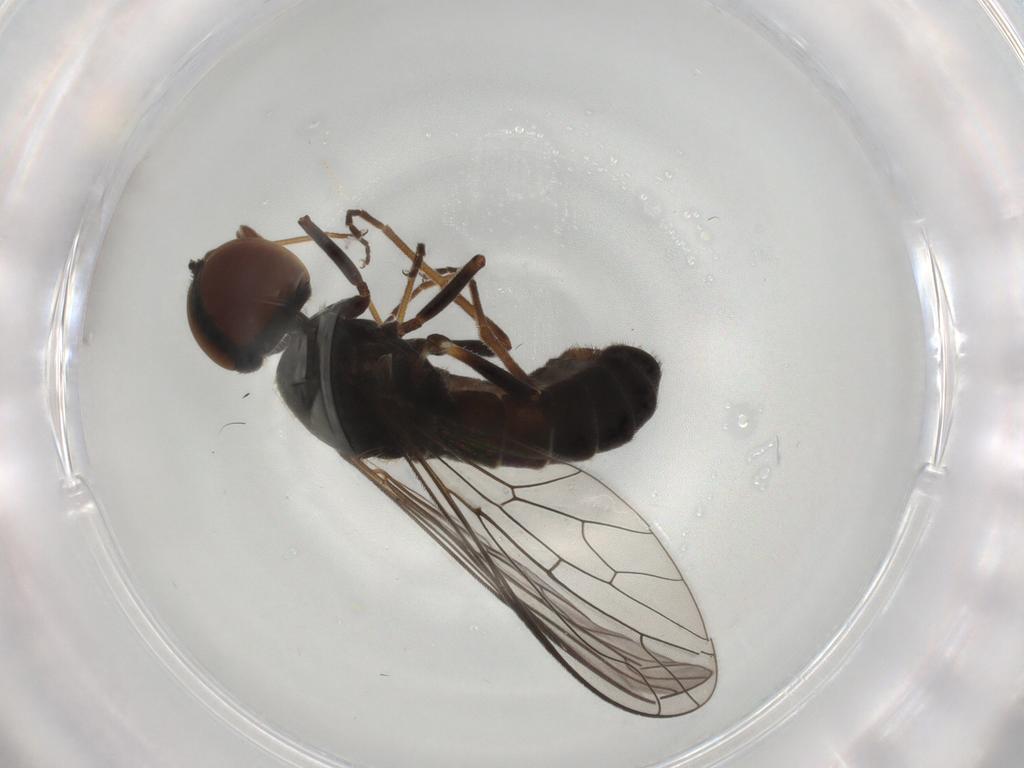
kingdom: Animalia
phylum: Arthropoda
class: Insecta
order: Diptera
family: Bombyliidae
